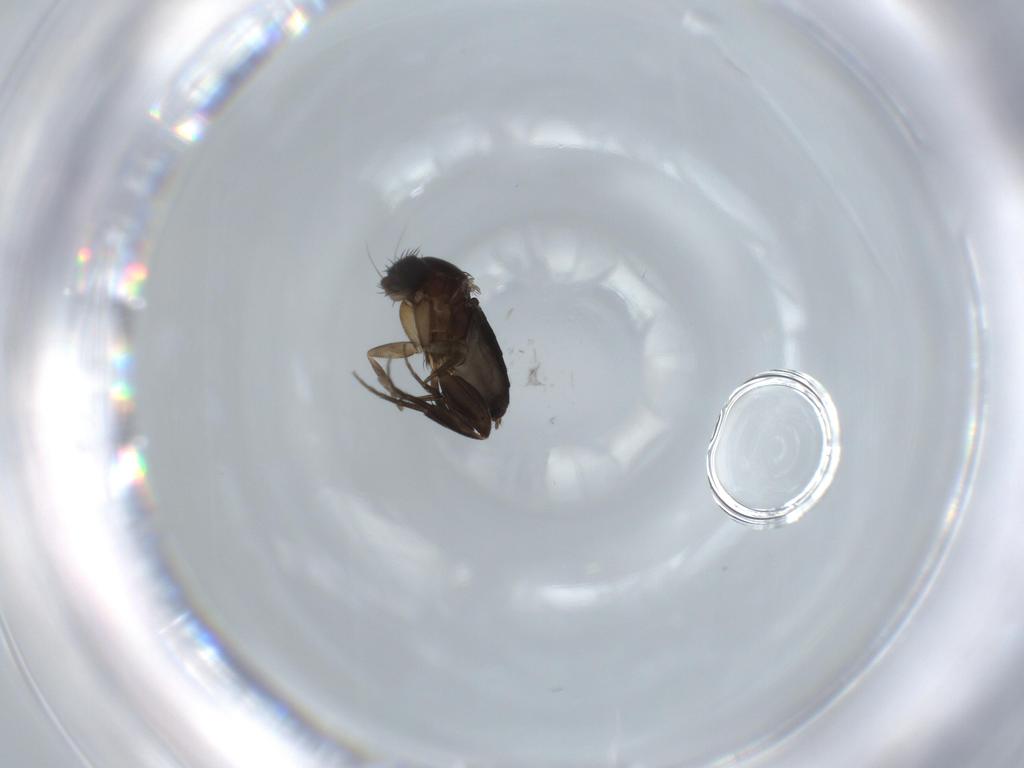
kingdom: Animalia
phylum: Arthropoda
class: Insecta
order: Diptera
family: Phoridae
